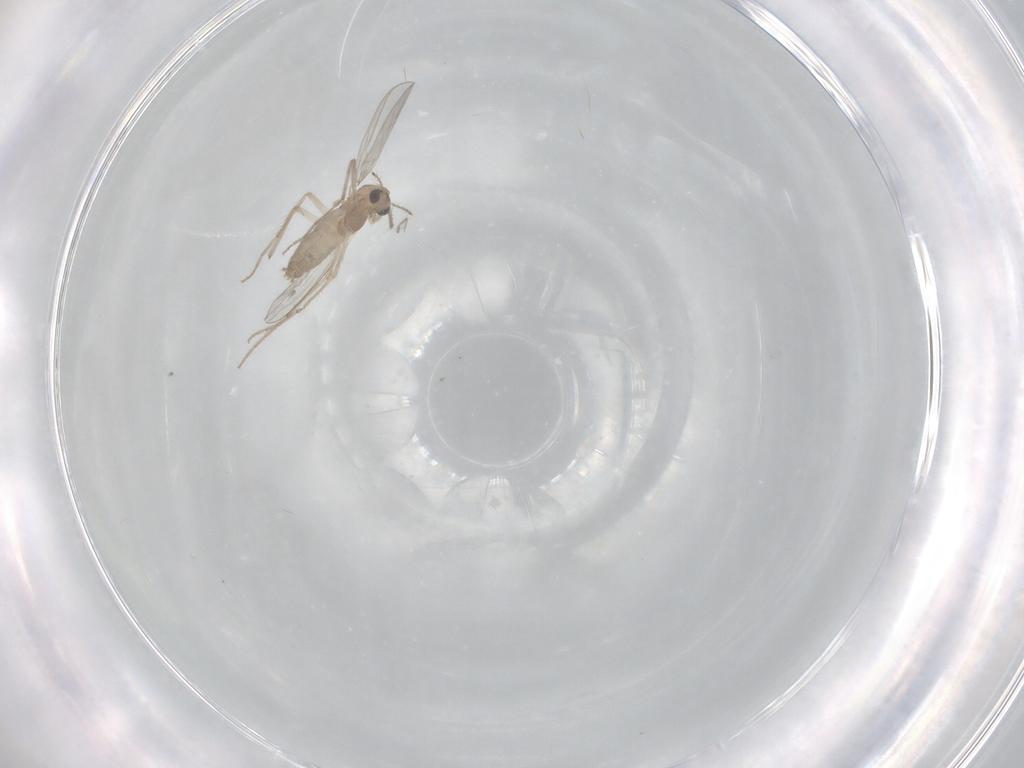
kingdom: Animalia
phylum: Arthropoda
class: Insecta
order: Diptera
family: Chironomidae
